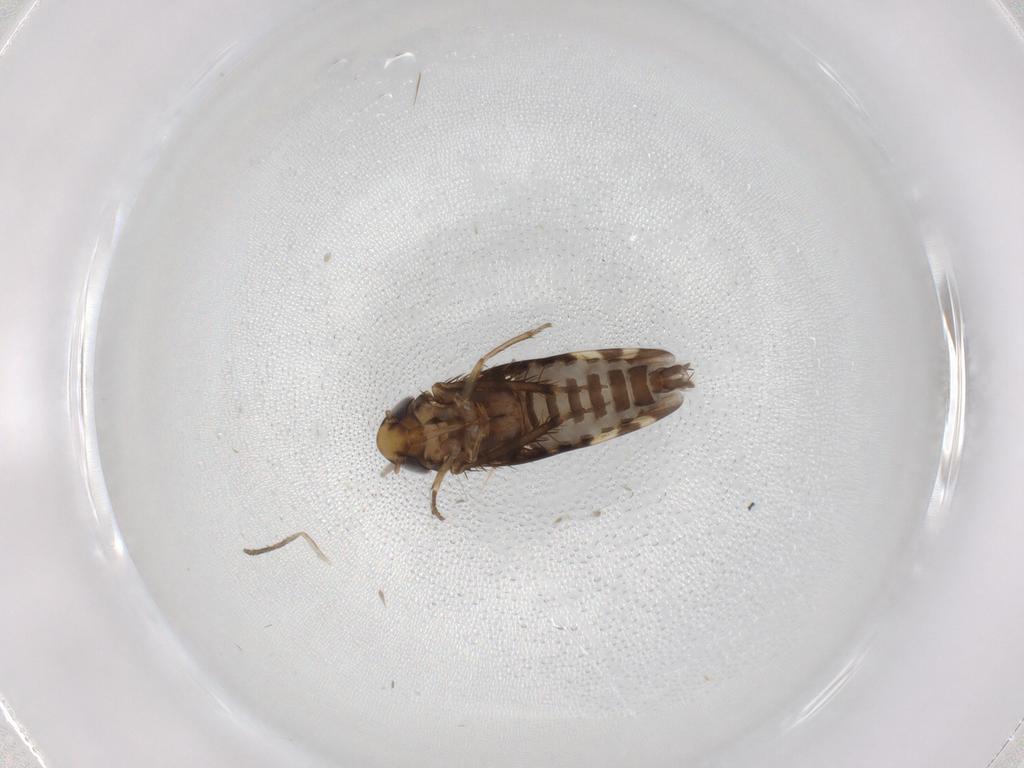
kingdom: Animalia
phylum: Arthropoda
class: Insecta
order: Hemiptera
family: Cicadellidae
